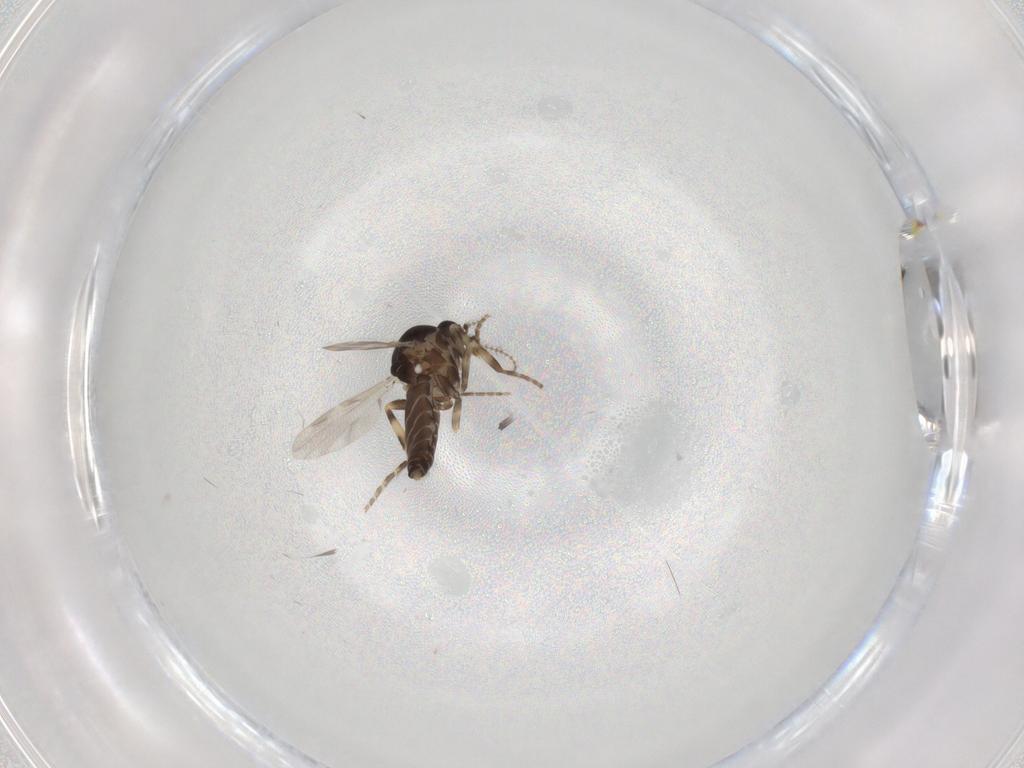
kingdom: Animalia
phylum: Arthropoda
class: Insecta
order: Diptera
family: Ceratopogonidae
